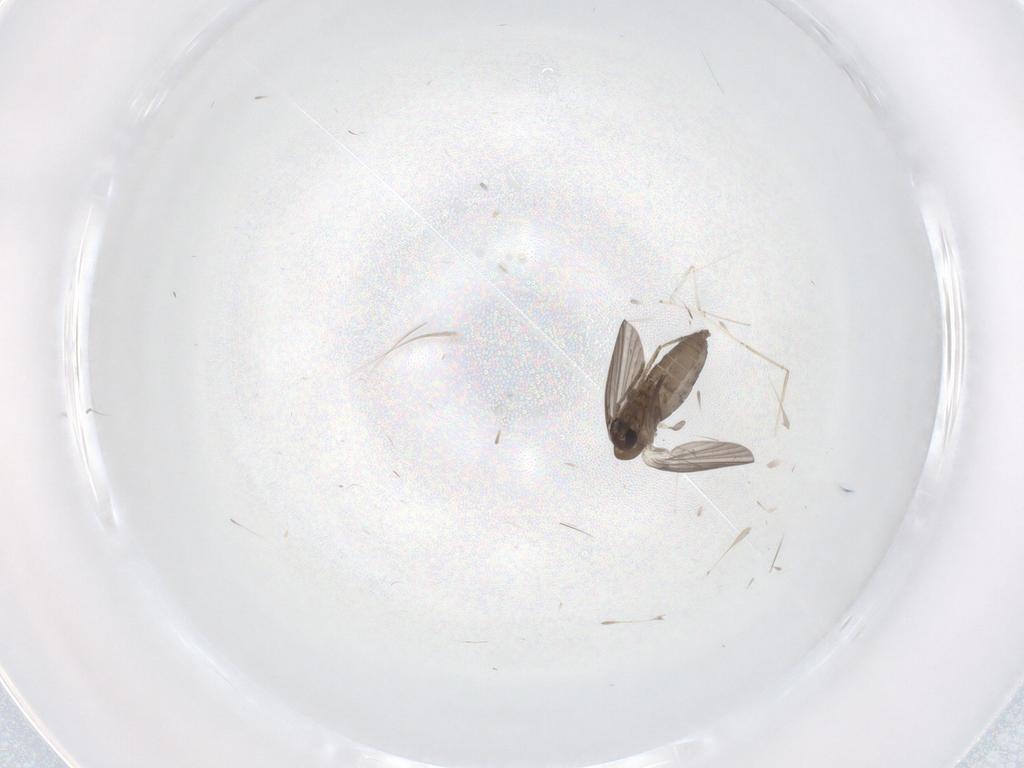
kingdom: Animalia
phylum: Arthropoda
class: Insecta
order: Diptera
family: Cecidomyiidae
